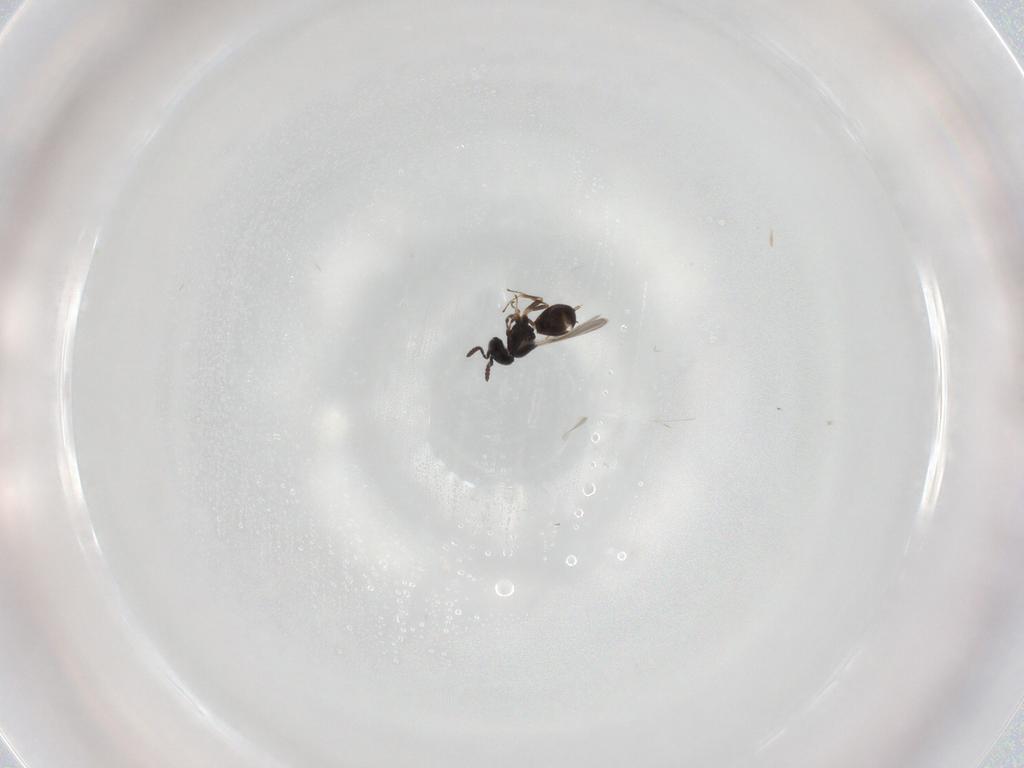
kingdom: Animalia
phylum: Arthropoda
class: Insecta
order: Hymenoptera
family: Scelionidae
